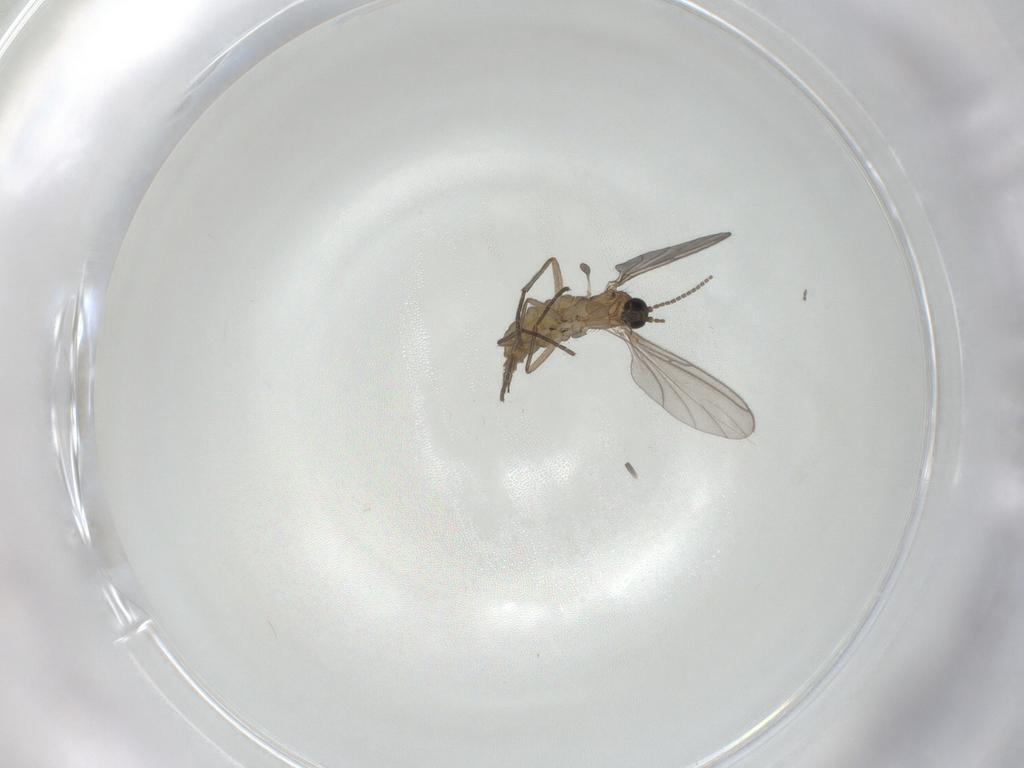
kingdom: Animalia
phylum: Arthropoda
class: Insecta
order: Diptera
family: Sciaridae
